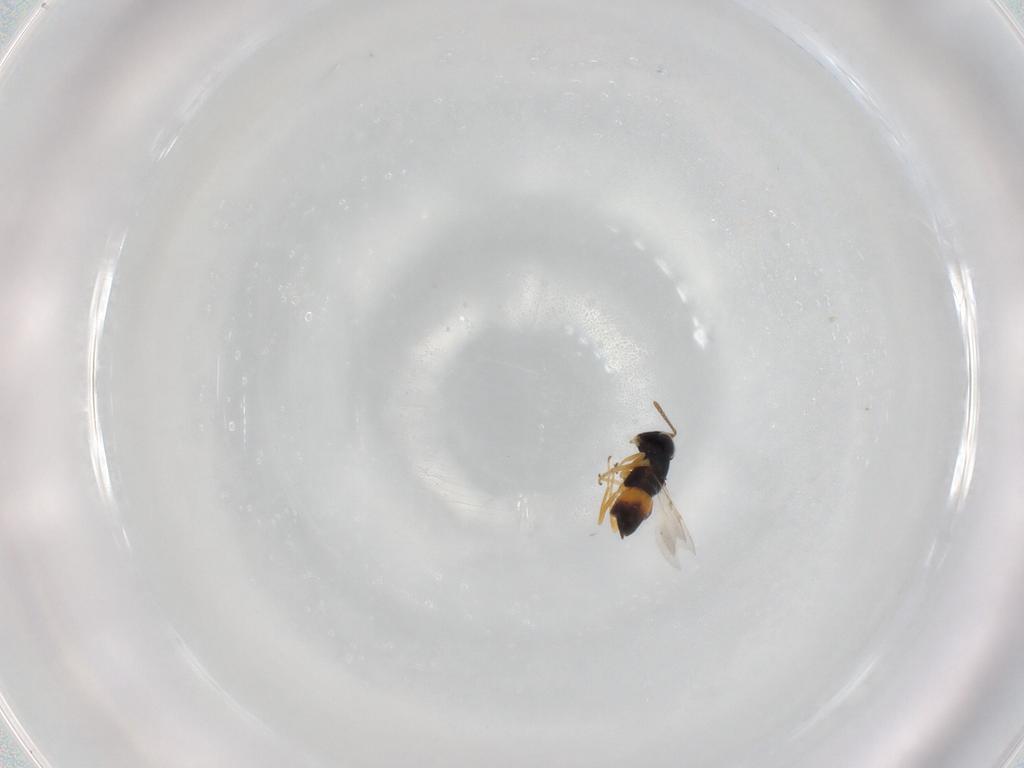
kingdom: Animalia
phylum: Arthropoda
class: Insecta
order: Hymenoptera
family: Encyrtidae
